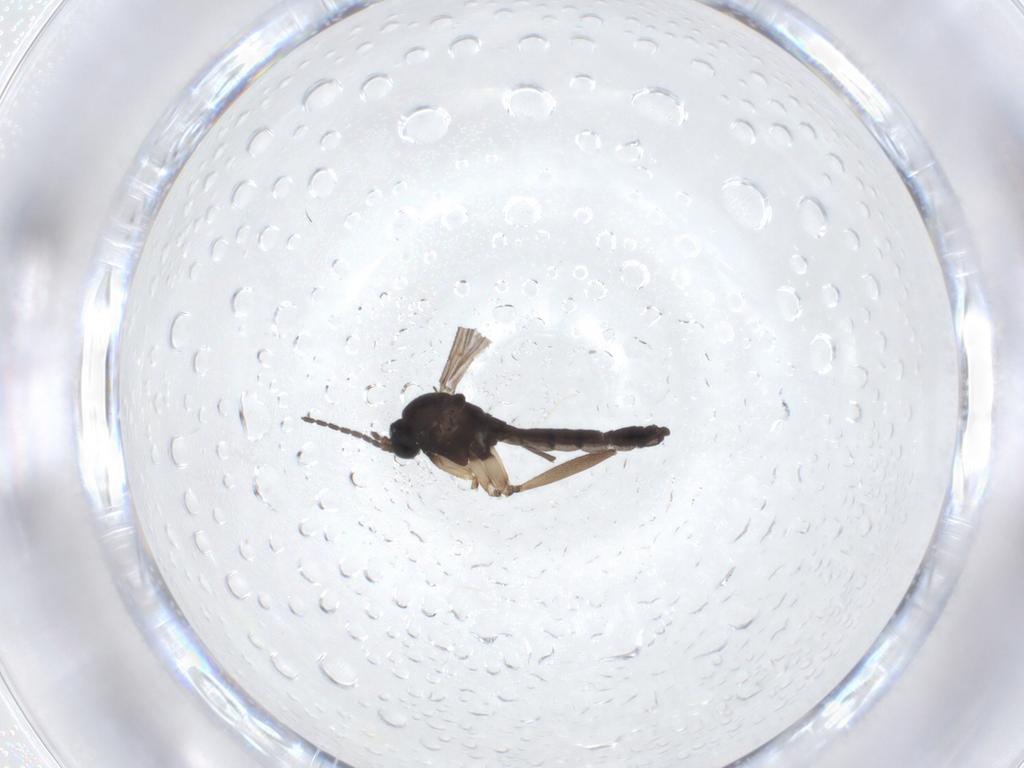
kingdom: Animalia
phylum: Arthropoda
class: Insecta
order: Diptera
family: Sciaridae
